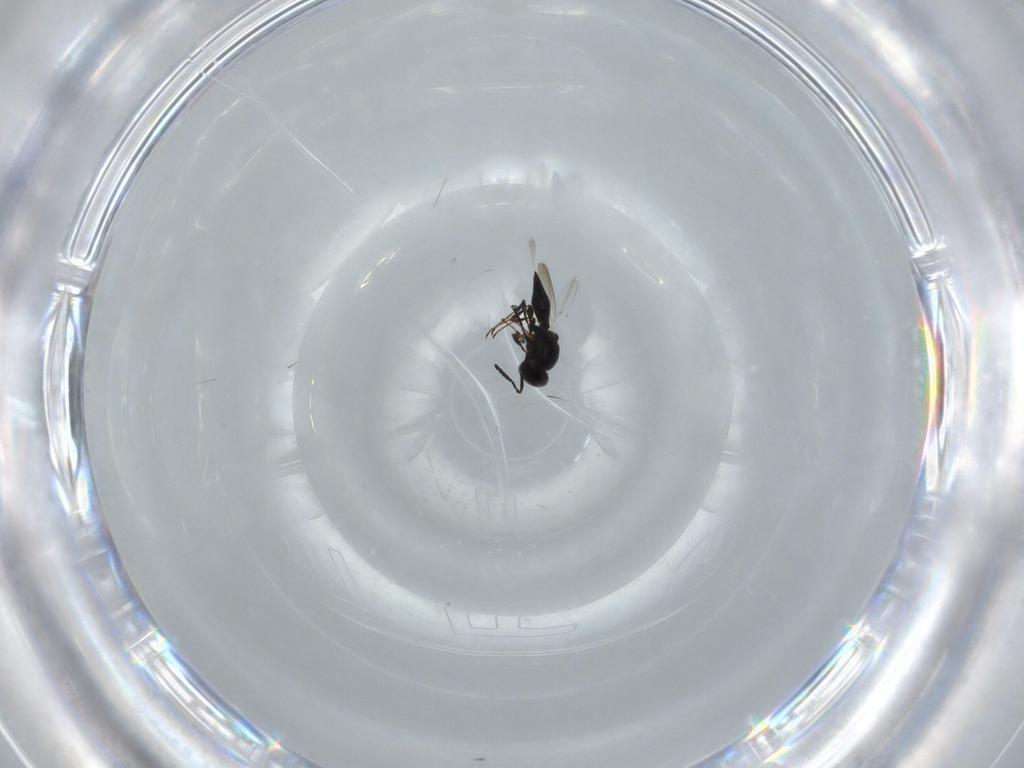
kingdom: Animalia
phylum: Arthropoda
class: Insecta
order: Diptera
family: Mythicomyiidae
